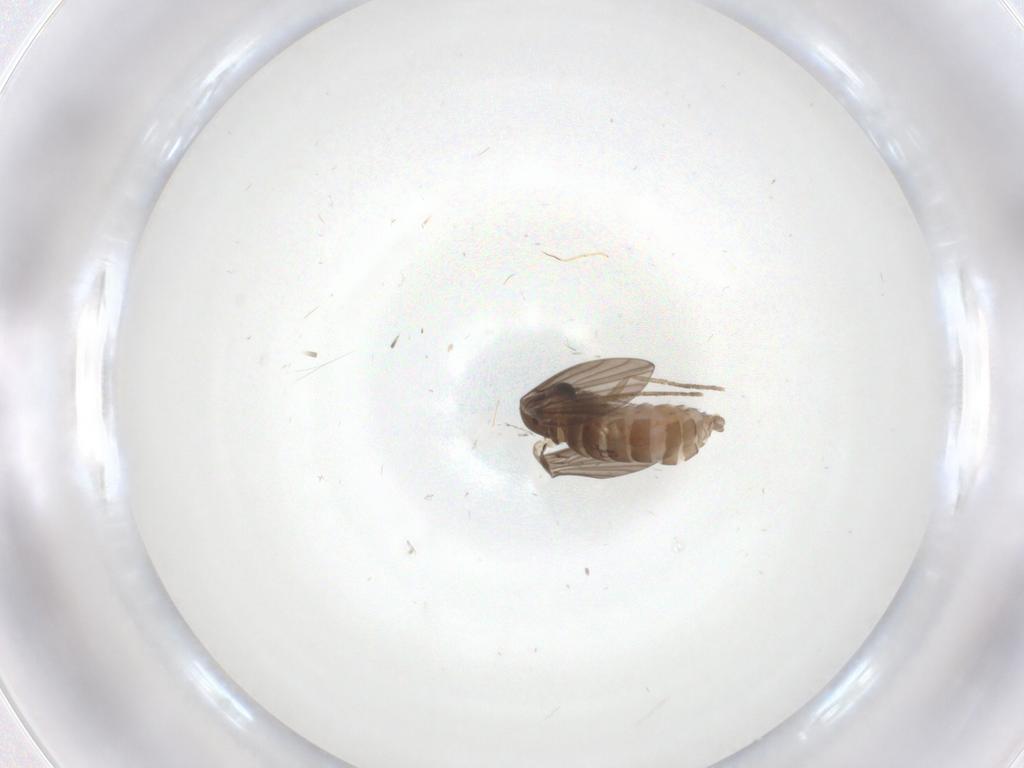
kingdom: Animalia
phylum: Arthropoda
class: Insecta
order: Diptera
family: Psychodidae
